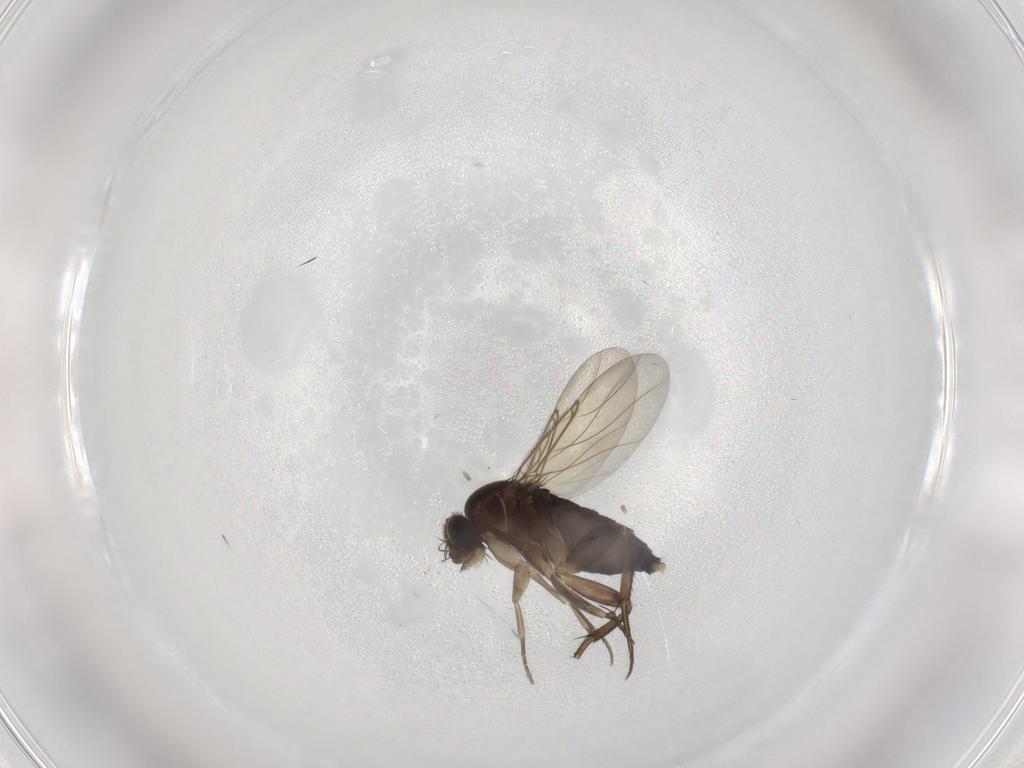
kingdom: Animalia
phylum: Arthropoda
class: Insecta
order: Diptera
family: Phoridae
